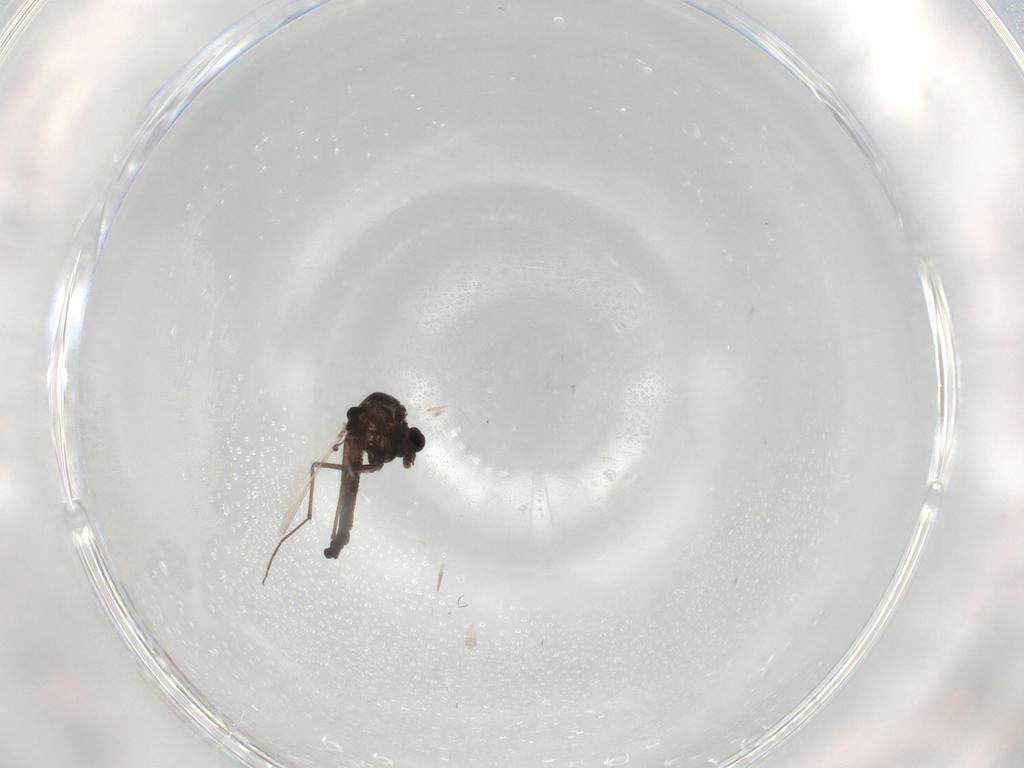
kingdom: Animalia
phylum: Arthropoda
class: Insecta
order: Diptera
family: Chironomidae
